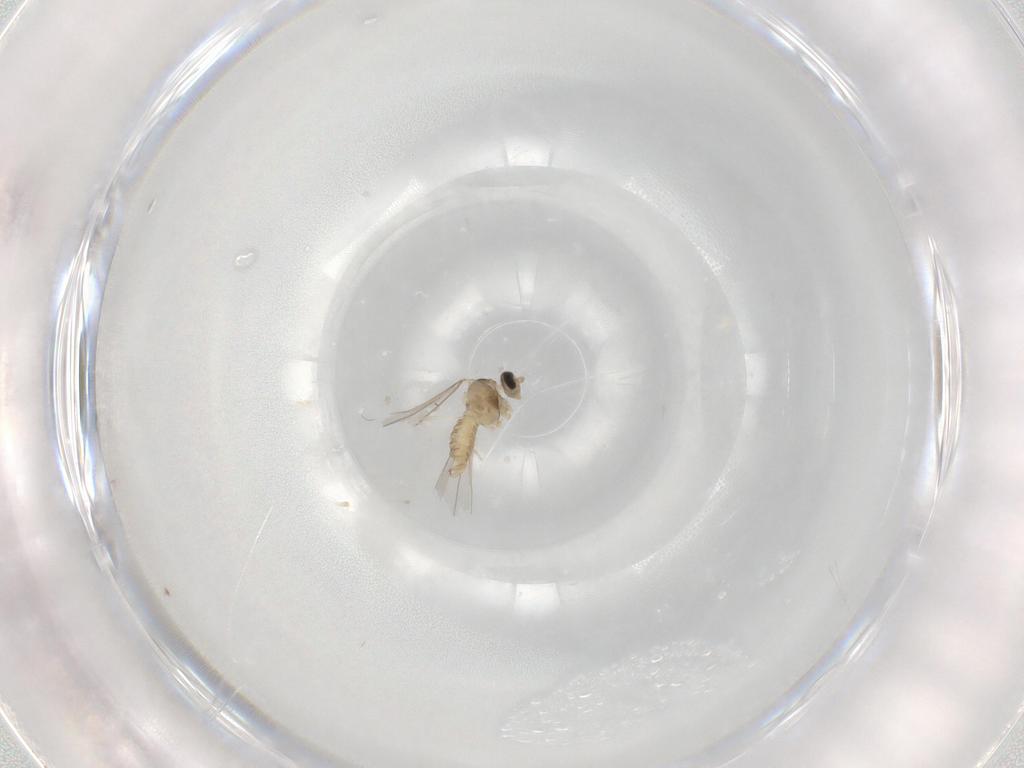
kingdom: Animalia
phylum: Arthropoda
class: Insecta
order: Diptera
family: Cecidomyiidae
